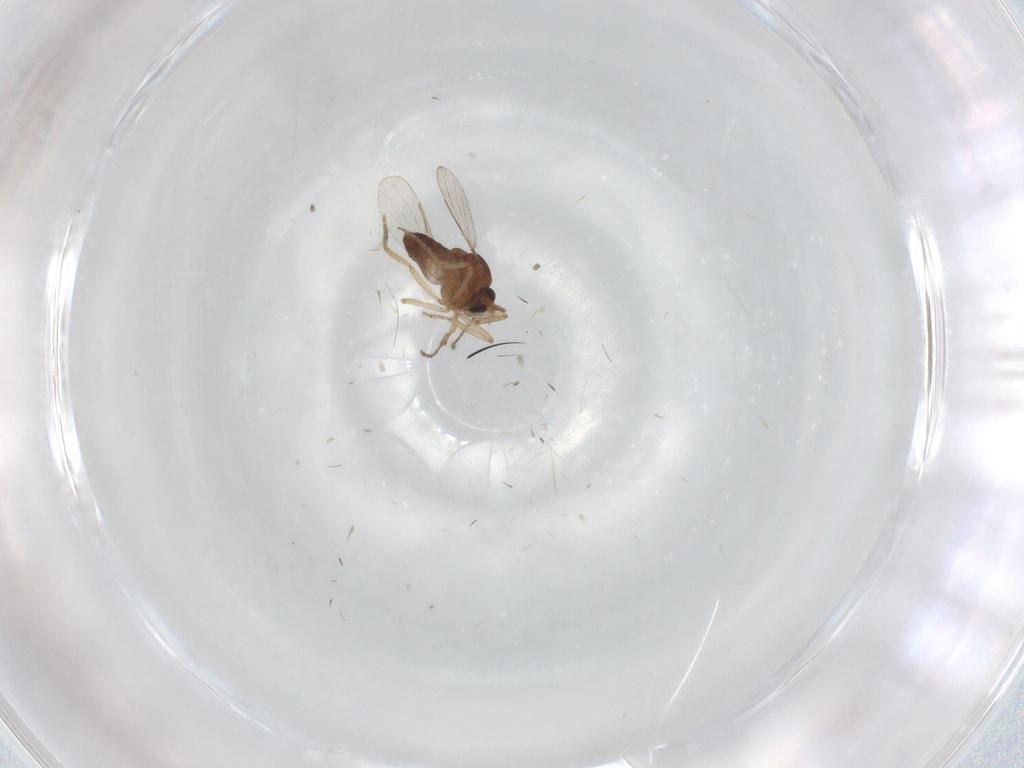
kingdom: Animalia
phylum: Arthropoda
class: Insecta
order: Diptera
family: Ceratopogonidae
